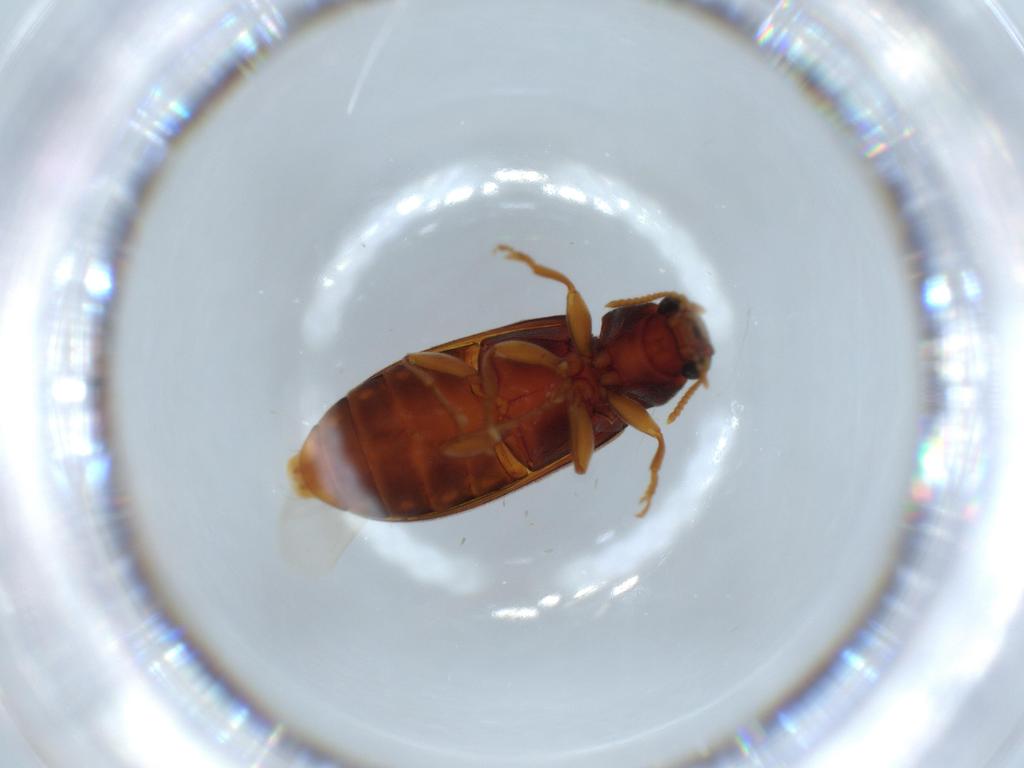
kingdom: Animalia
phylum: Arthropoda
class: Insecta
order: Coleoptera
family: Mycteridae
